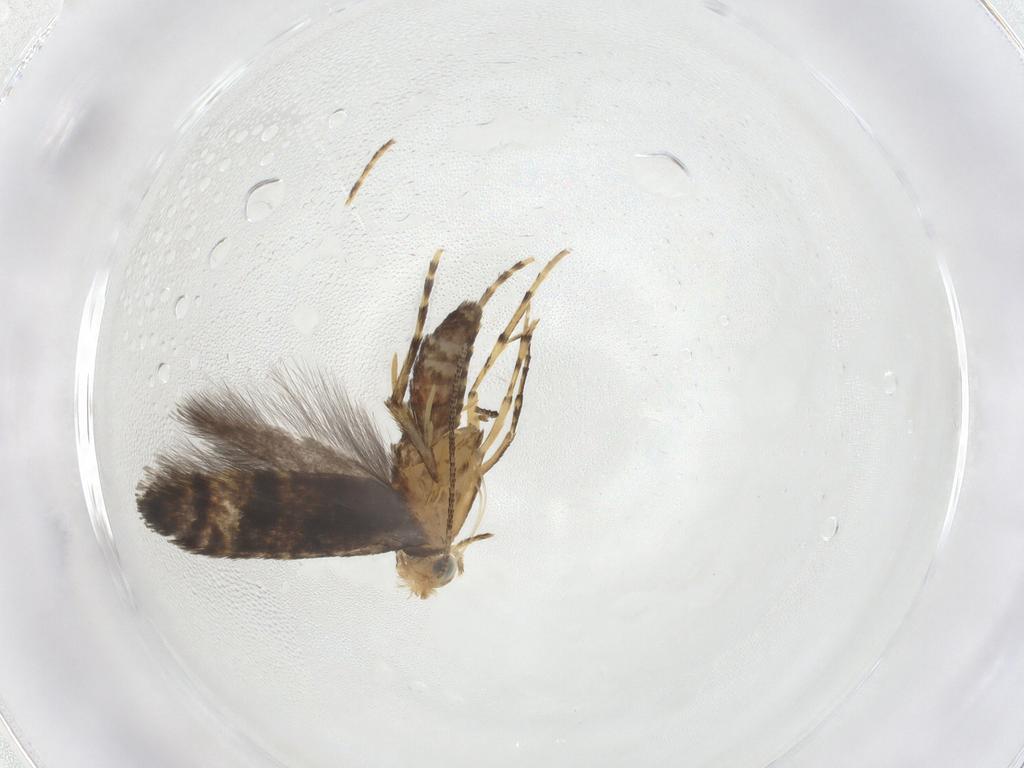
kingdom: Animalia
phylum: Arthropoda
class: Insecta
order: Lepidoptera
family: Argyresthiidae
